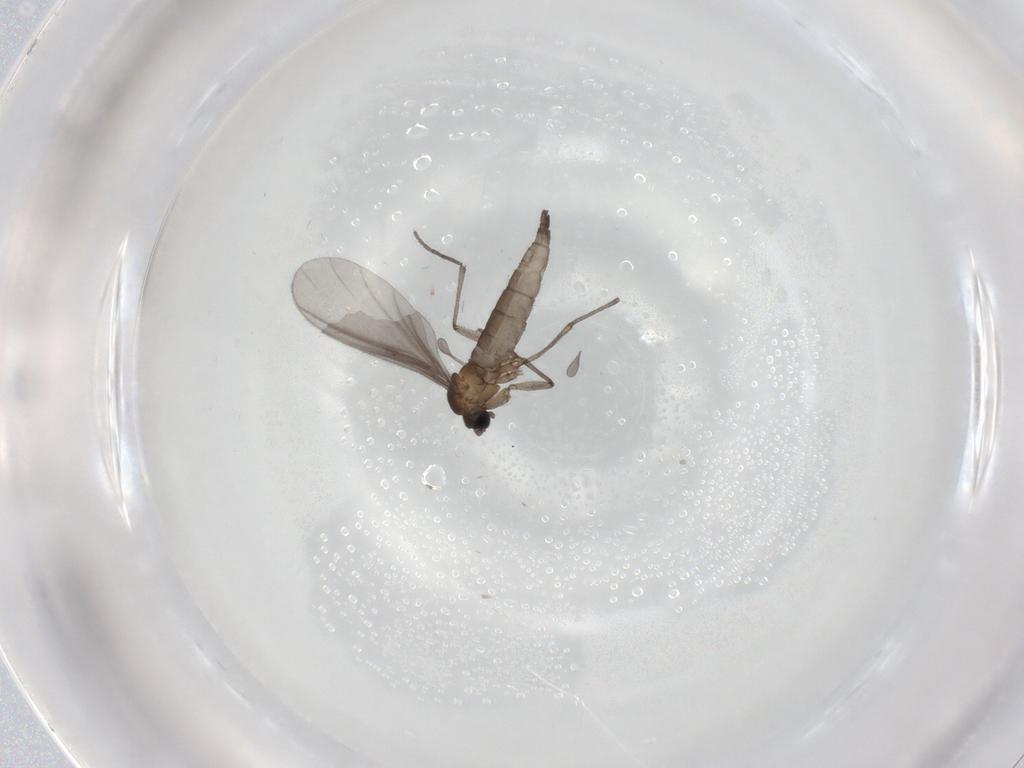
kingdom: Animalia
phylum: Arthropoda
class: Insecta
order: Diptera
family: Sciaridae
